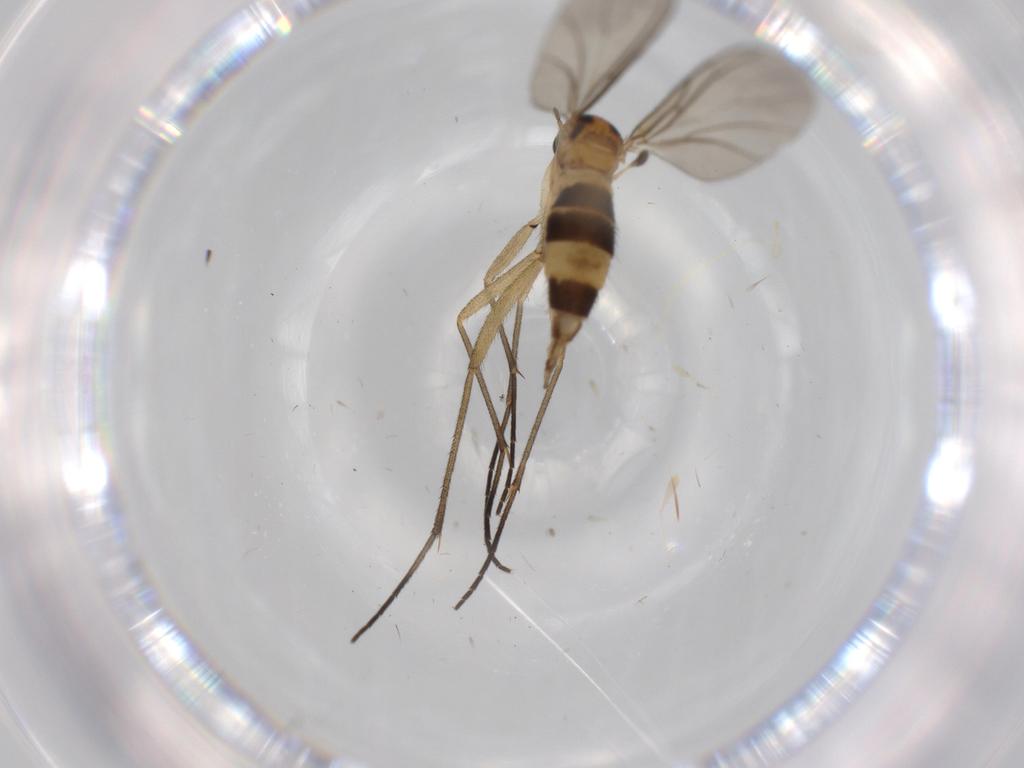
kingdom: Animalia
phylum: Arthropoda
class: Insecta
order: Diptera
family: Sciaridae
